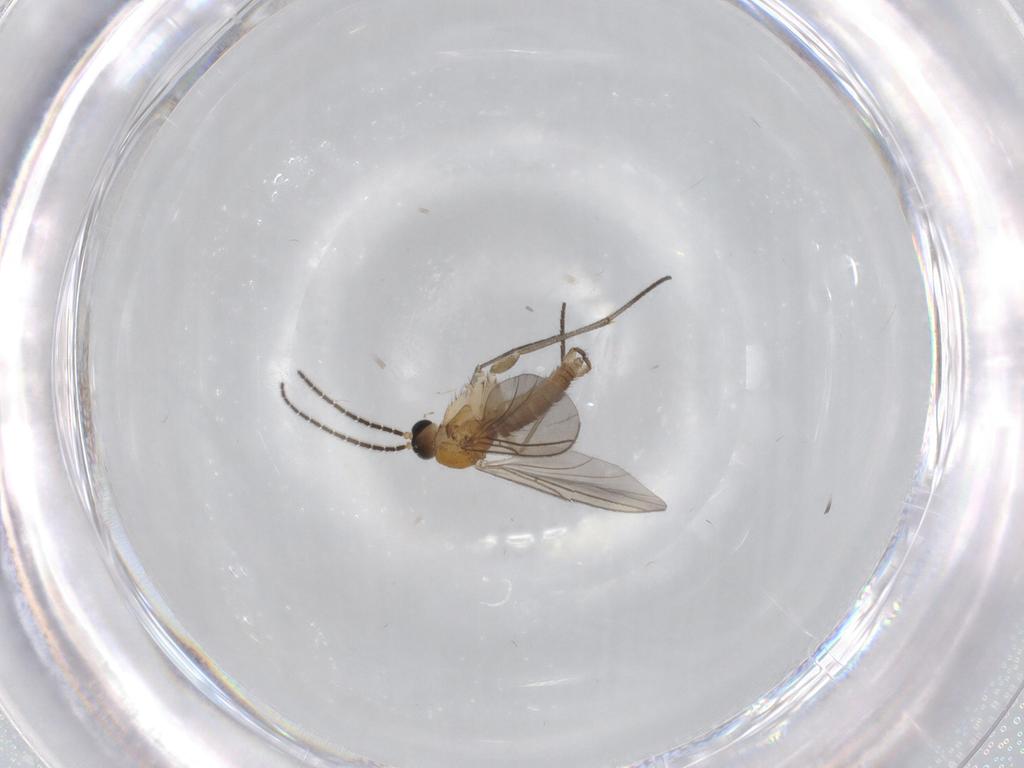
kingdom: Animalia
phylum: Arthropoda
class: Insecta
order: Diptera
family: Sciaridae
